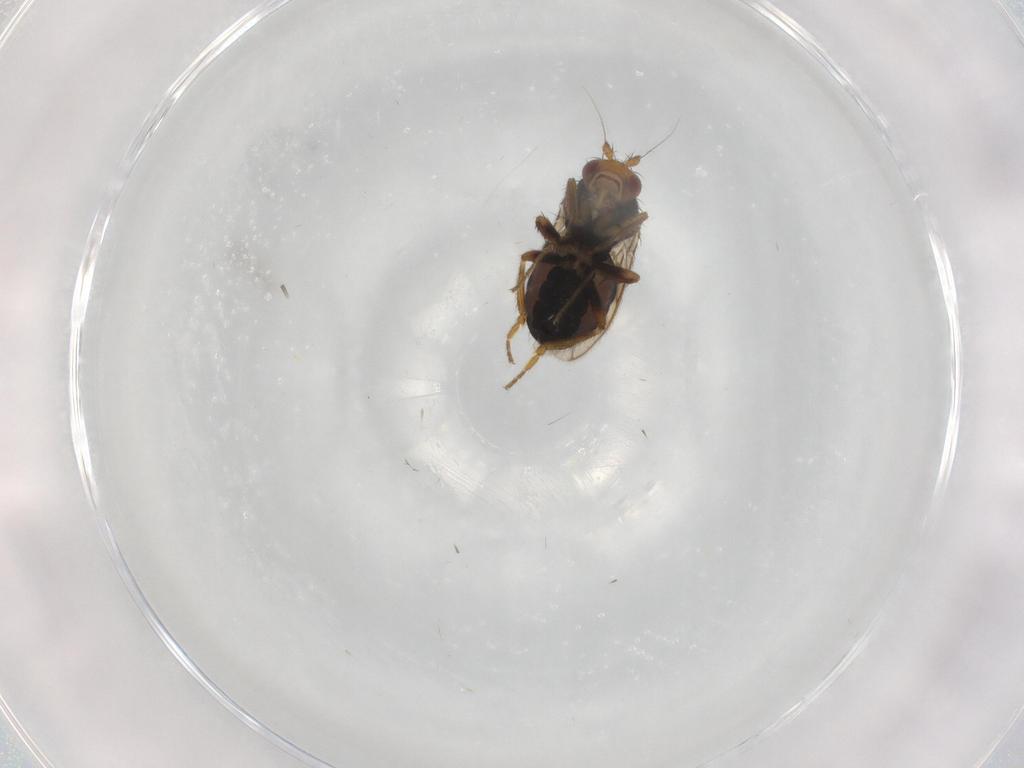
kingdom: Animalia
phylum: Arthropoda
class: Insecta
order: Diptera
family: Sphaeroceridae
